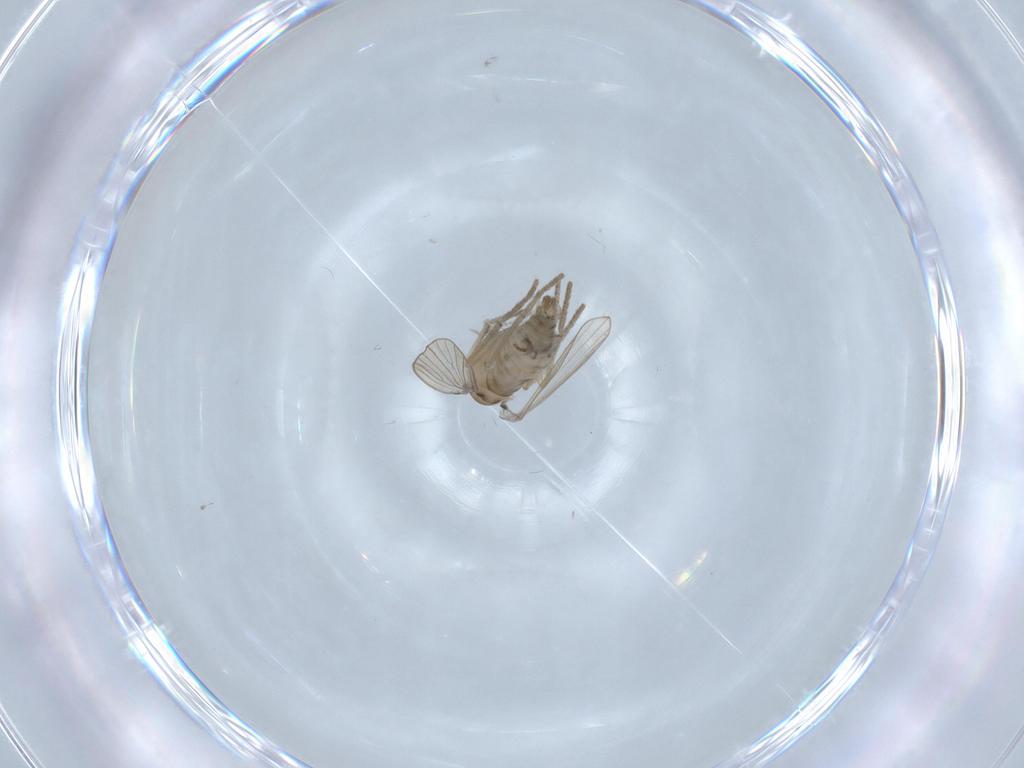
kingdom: Animalia
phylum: Arthropoda
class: Insecta
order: Diptera
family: Psychodidae
